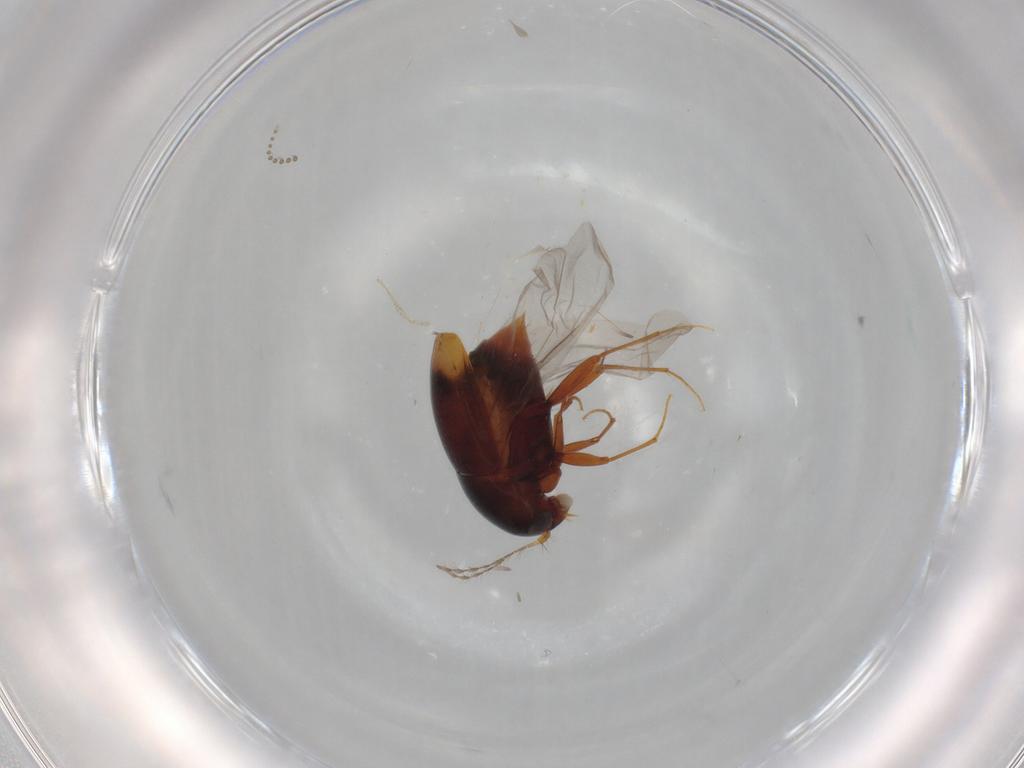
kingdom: Animalia
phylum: Arthropoda
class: Insecta
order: Coleoptera
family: Staphylinidae
